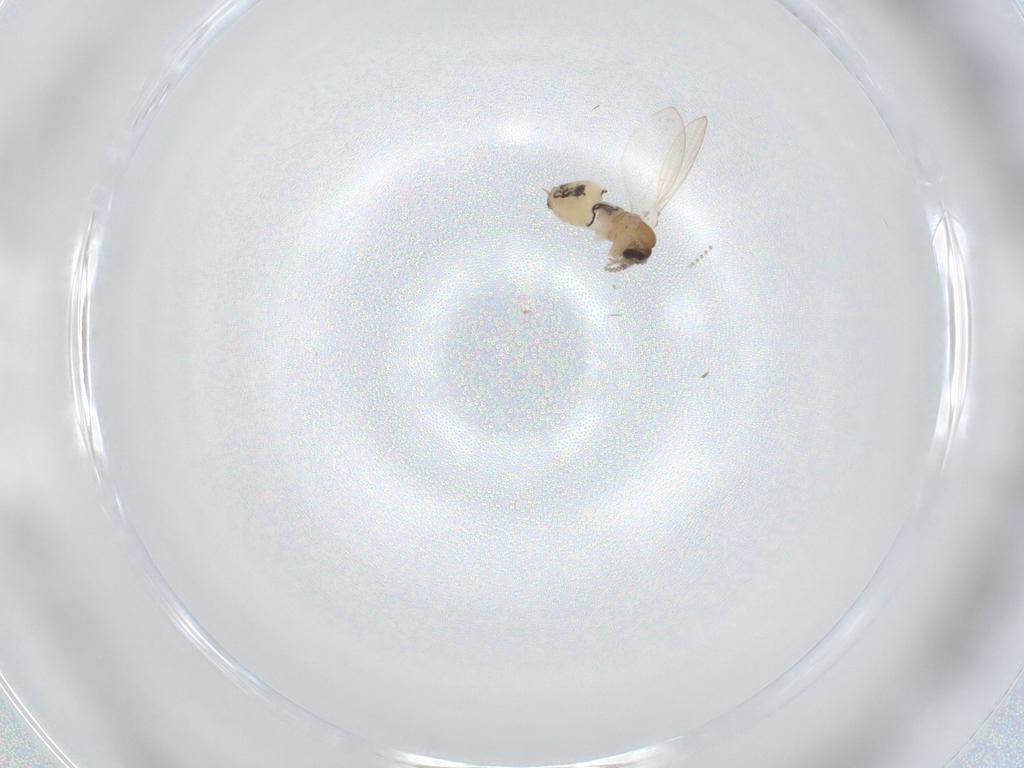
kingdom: Animalia
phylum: Arthropoda
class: Insecta
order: Diptera
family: Psychodidae
